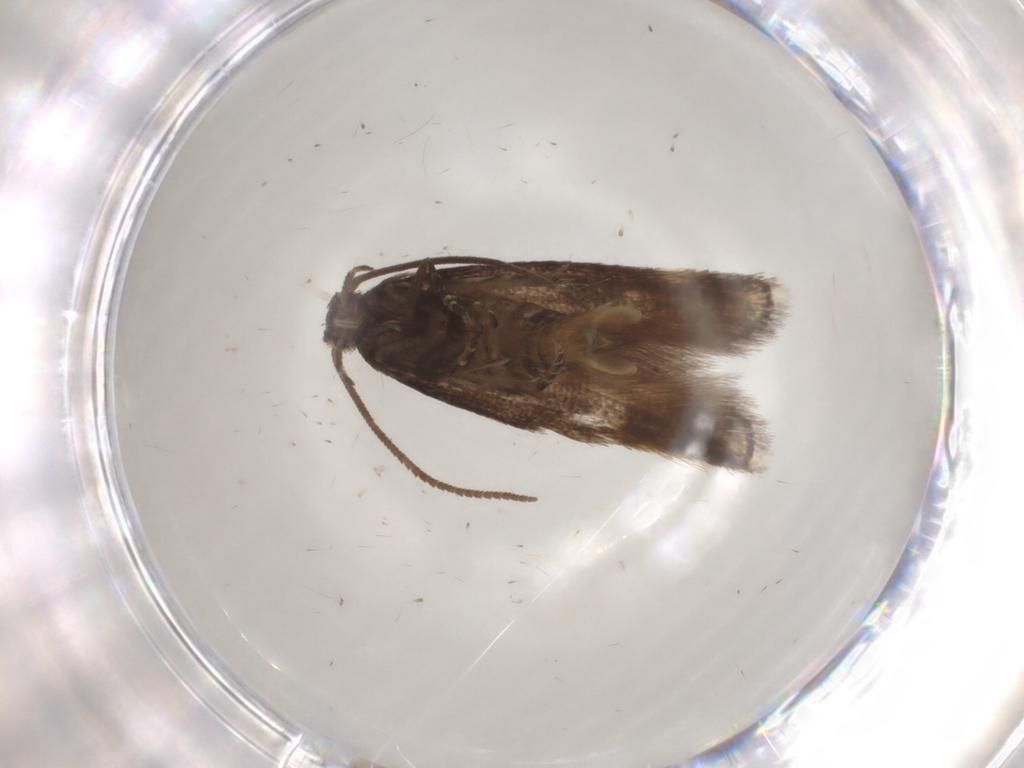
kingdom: Animalia
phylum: Arthropoda
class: Insecta
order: Lepidoptera
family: Elachistidae
